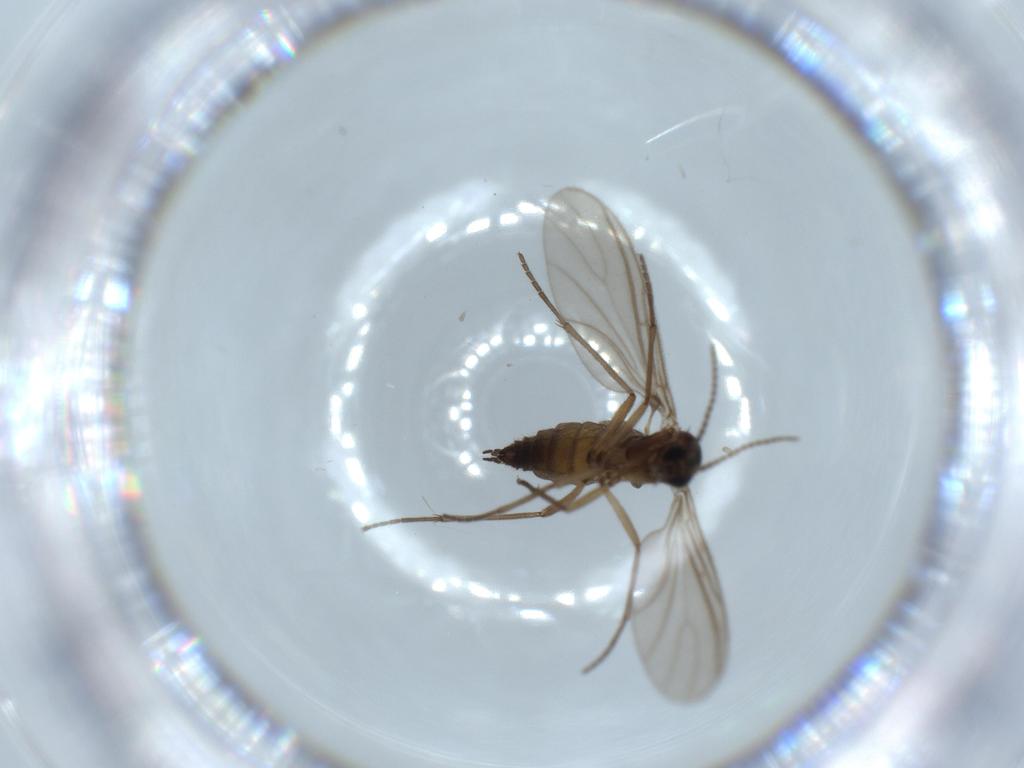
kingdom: Animalia
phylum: Arthropoda
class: Insecta
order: Diptera
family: Sciaridae
